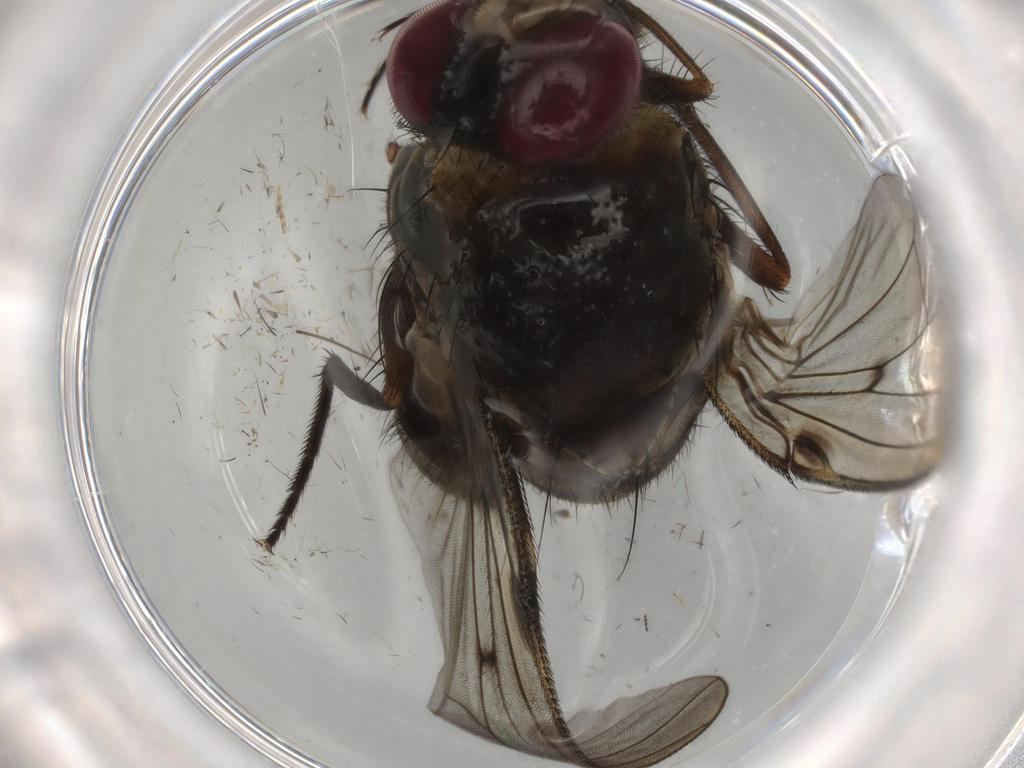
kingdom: Animalia
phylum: Arthropoda
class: Insecta
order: Diptera
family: Cecidomyiidae
